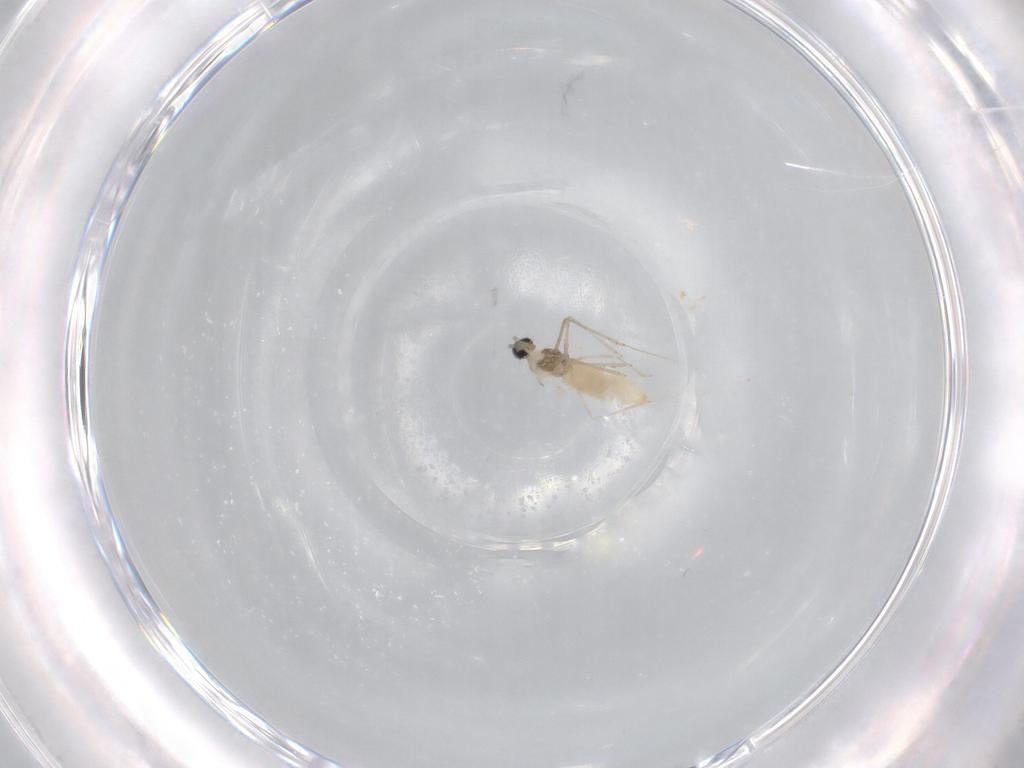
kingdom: Animalia
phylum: Arthropoda
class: Insecta
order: Diptera
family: Cecidomyiidae
